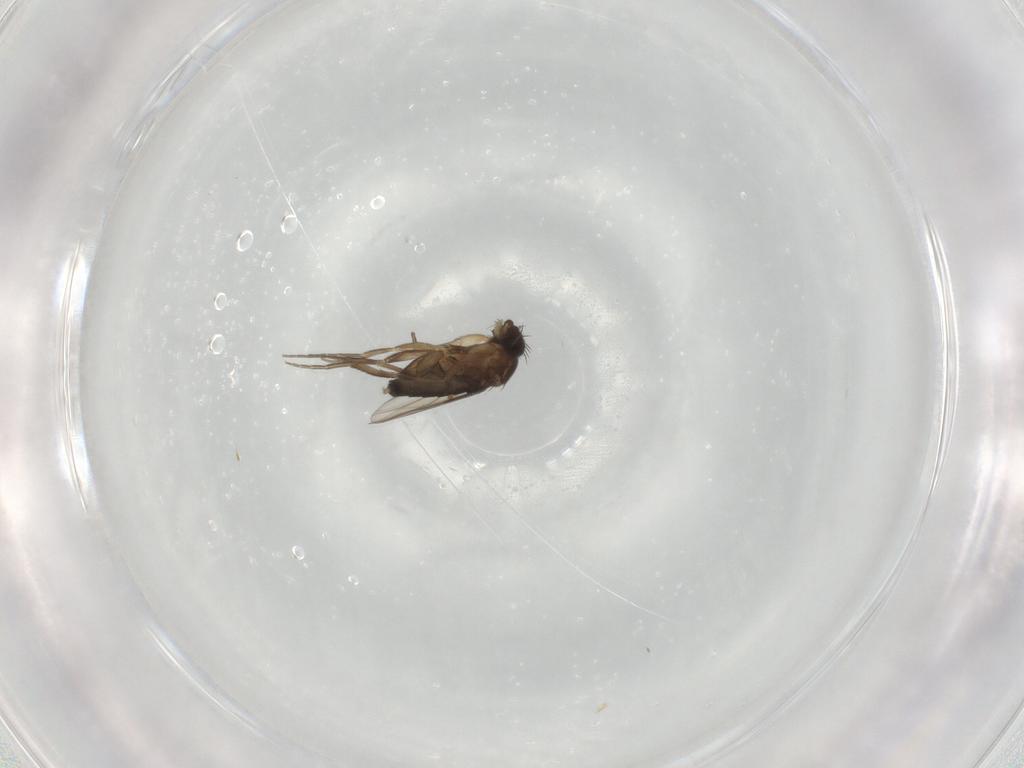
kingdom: Animalia
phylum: Arthropoda
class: Insecta
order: Diptera
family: Phoridae
